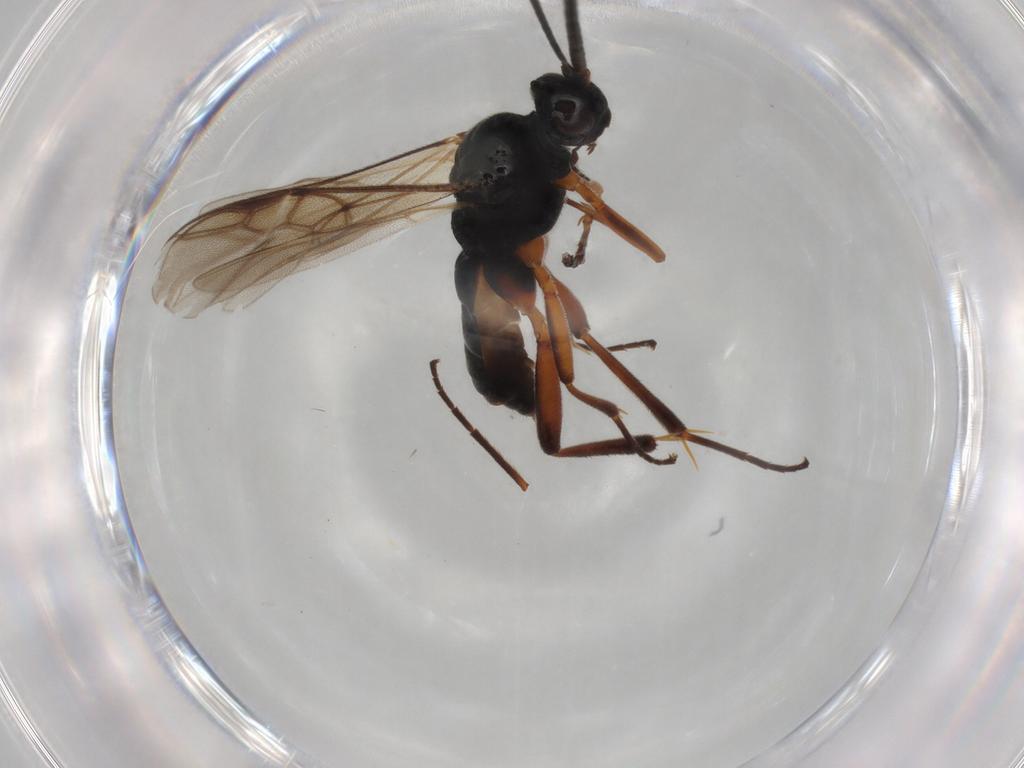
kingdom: Animalia
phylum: Arthropoda
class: Insecta
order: Hymenoptera
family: Braconidae
